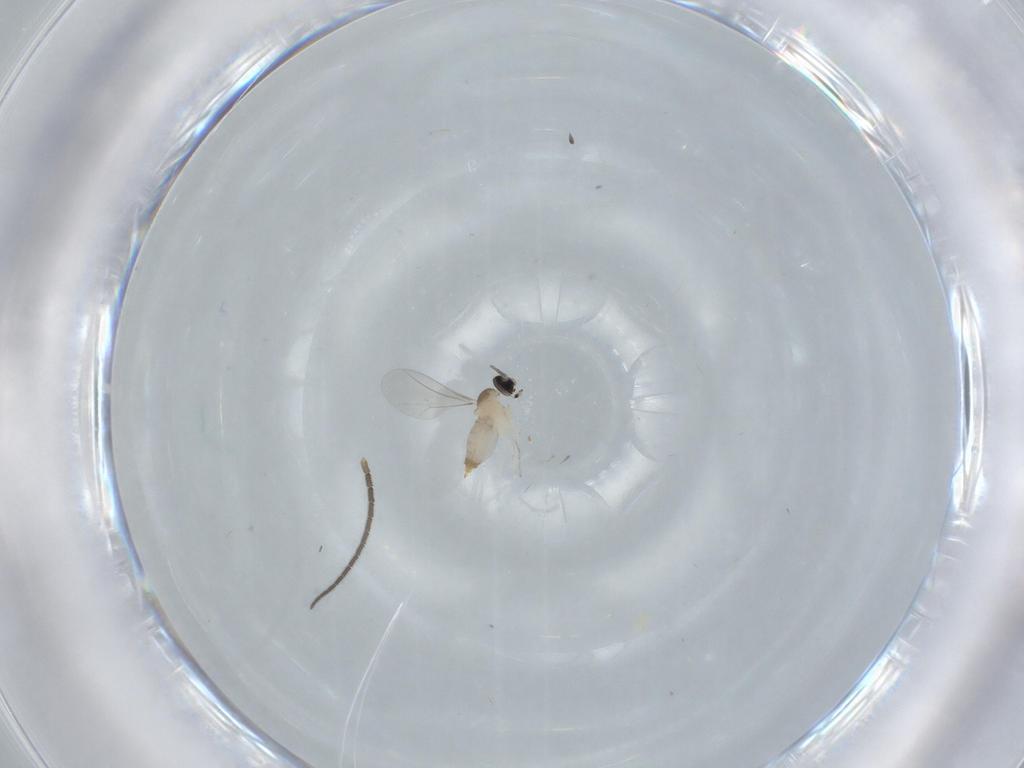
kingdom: Animalia
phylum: Arthropoda
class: Insecta
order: Diptera
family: Cecidomyiidae
